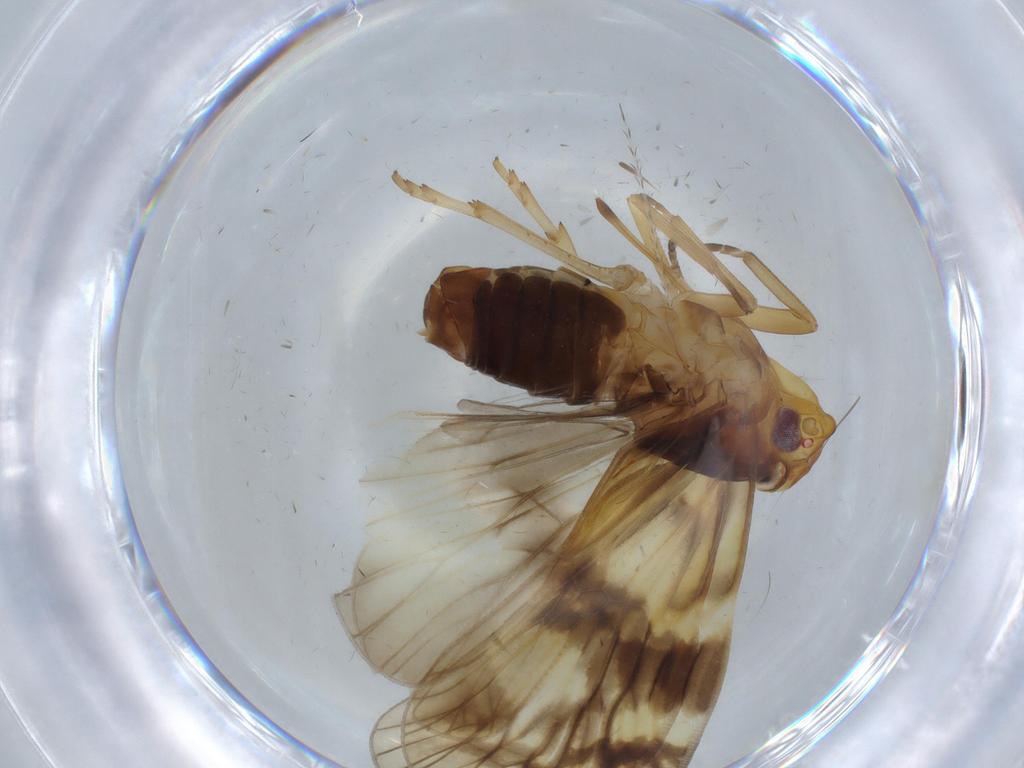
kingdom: Animalia
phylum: Arthropoda
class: Insecta
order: Hemiptera
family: Cixiidae
